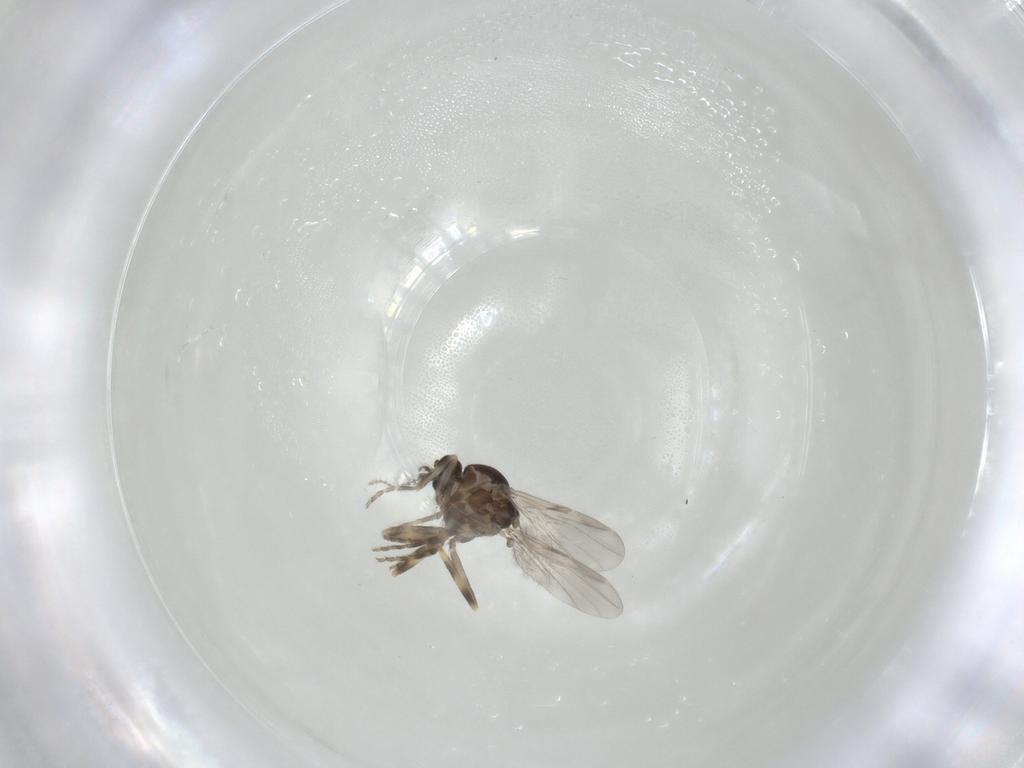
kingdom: Animalia
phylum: Arthropoda
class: Insecta
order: Diptera
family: Ceratopogonidae
